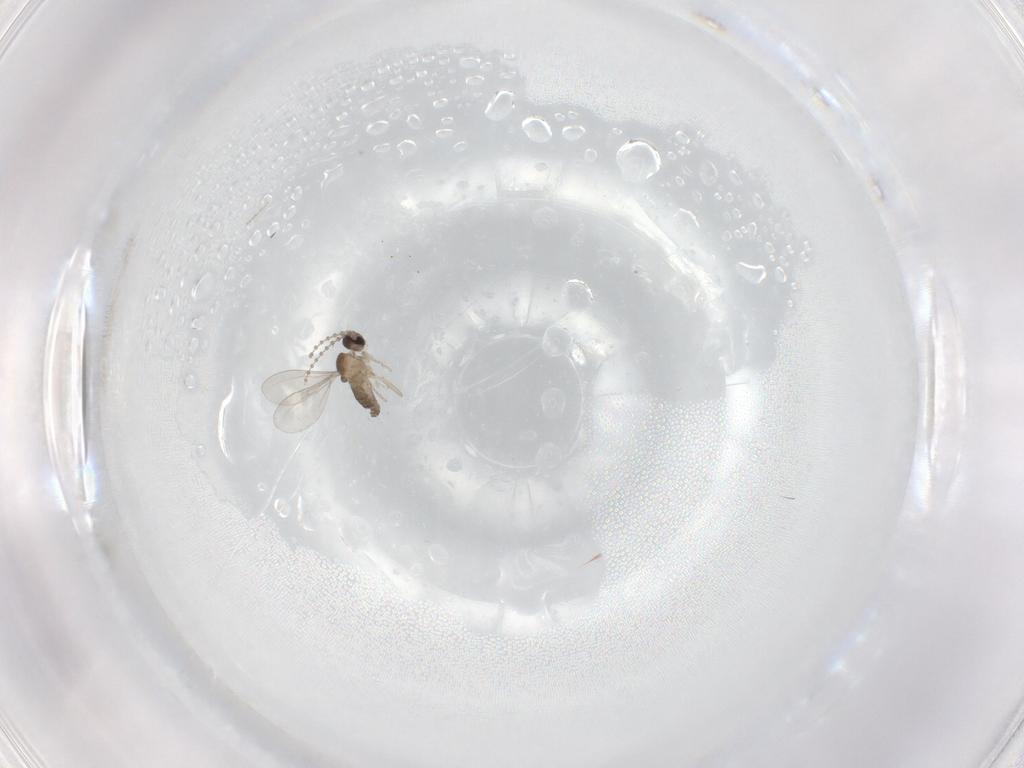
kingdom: Animalia
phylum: Arthropoda
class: Insecta
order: Diptera
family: Cecidomyiidae
